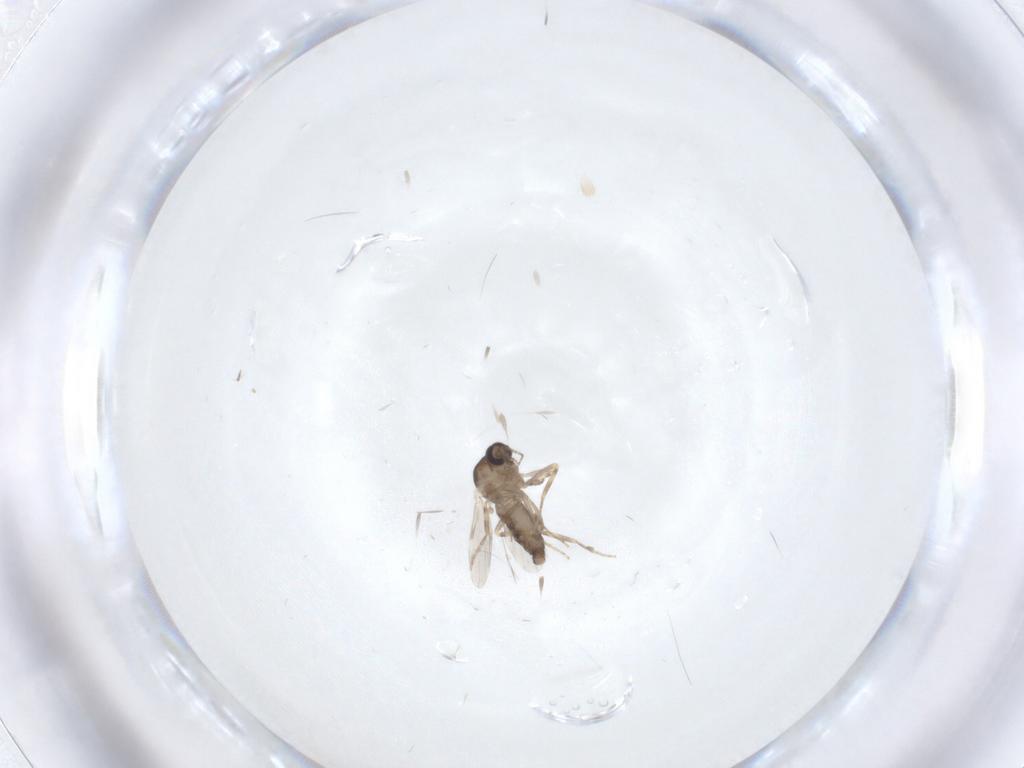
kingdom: Animalia
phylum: Arthropoda
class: Insecta
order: Diptera
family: Ceratopogonidae
